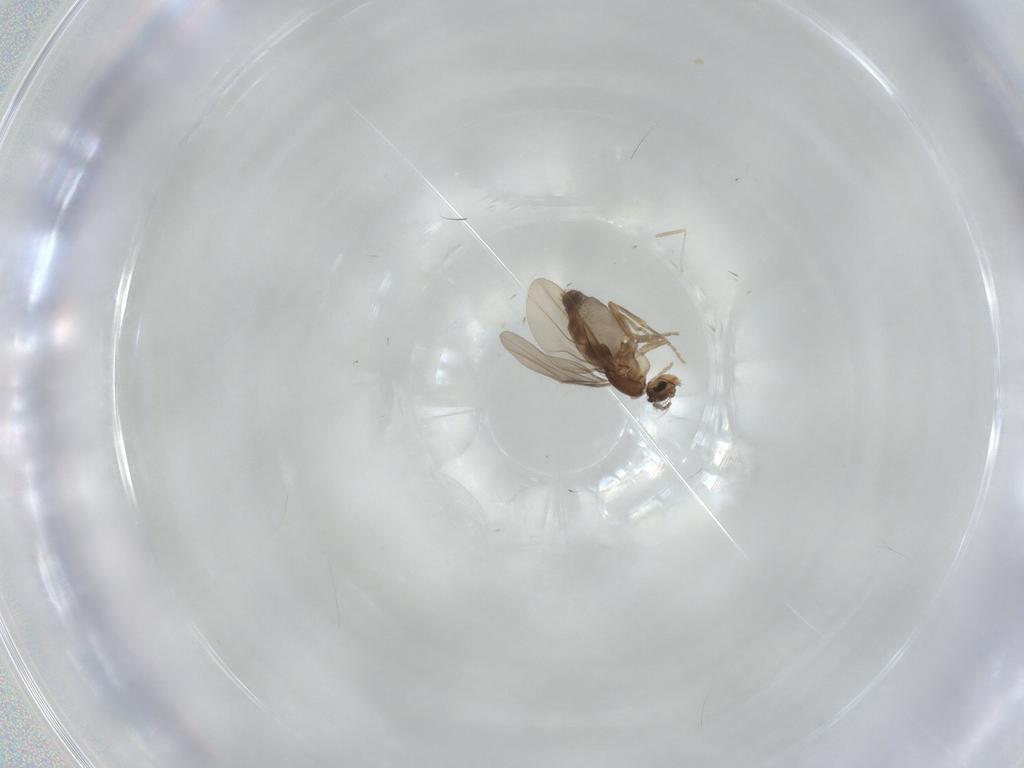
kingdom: Animalia
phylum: Arthropoda
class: Insecta
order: Diptera
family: Phoridae
